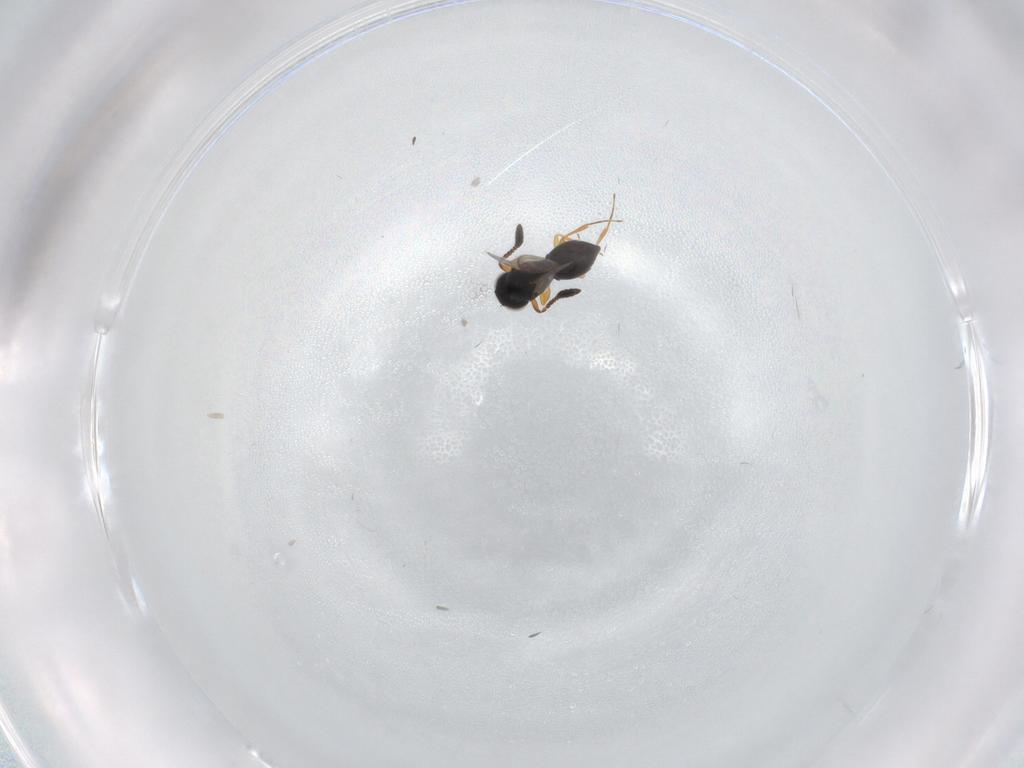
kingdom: Animalia
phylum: Arthropoda
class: Insecta
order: Hymenoptera
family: Scelionidae
